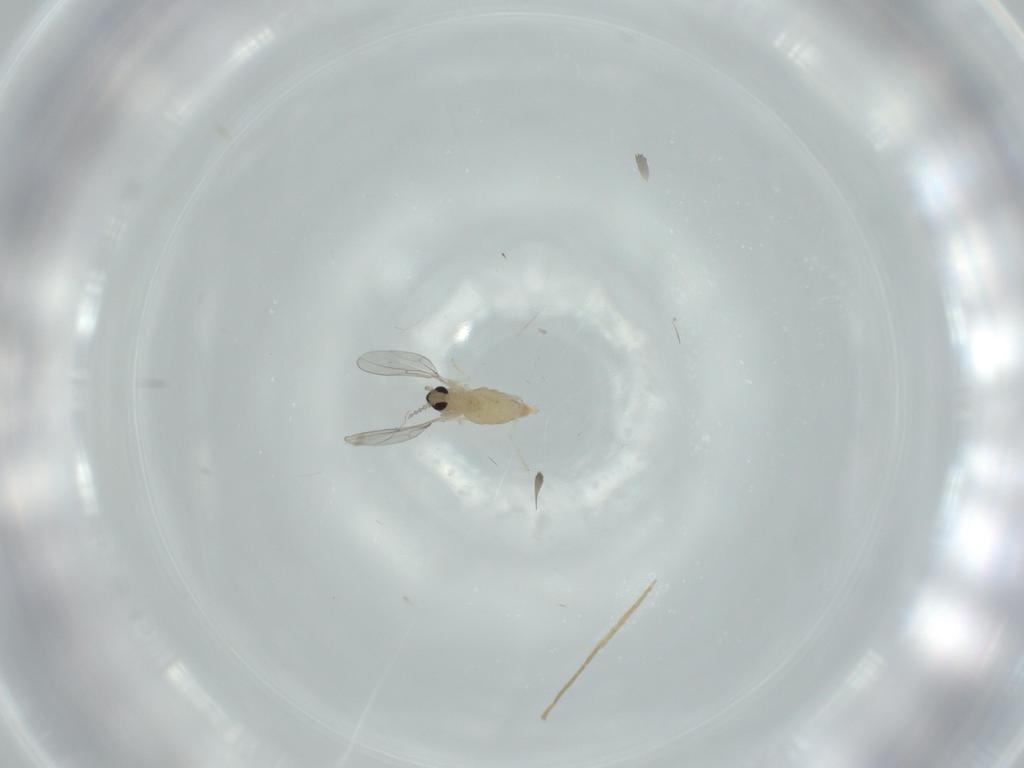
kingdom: Animalia
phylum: Arthropoda
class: Insecta
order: Diptera
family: Cecidomyiidae
